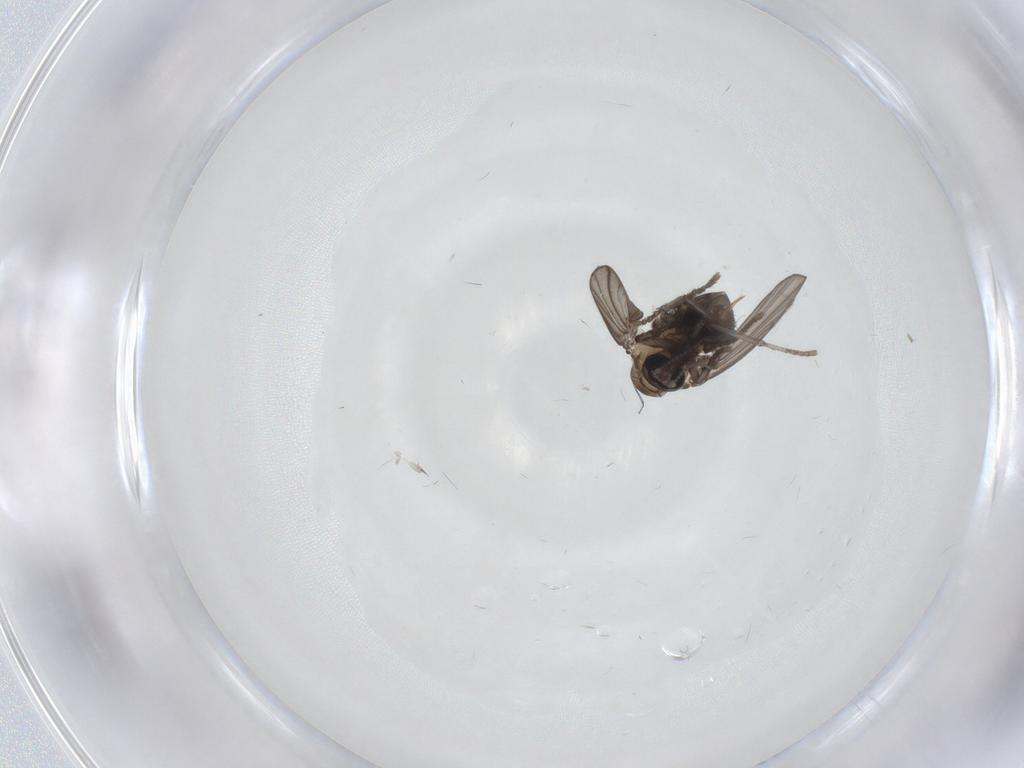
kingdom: Animalia
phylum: Arthropoda
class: Insecta
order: Diptera
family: Psychodidae
